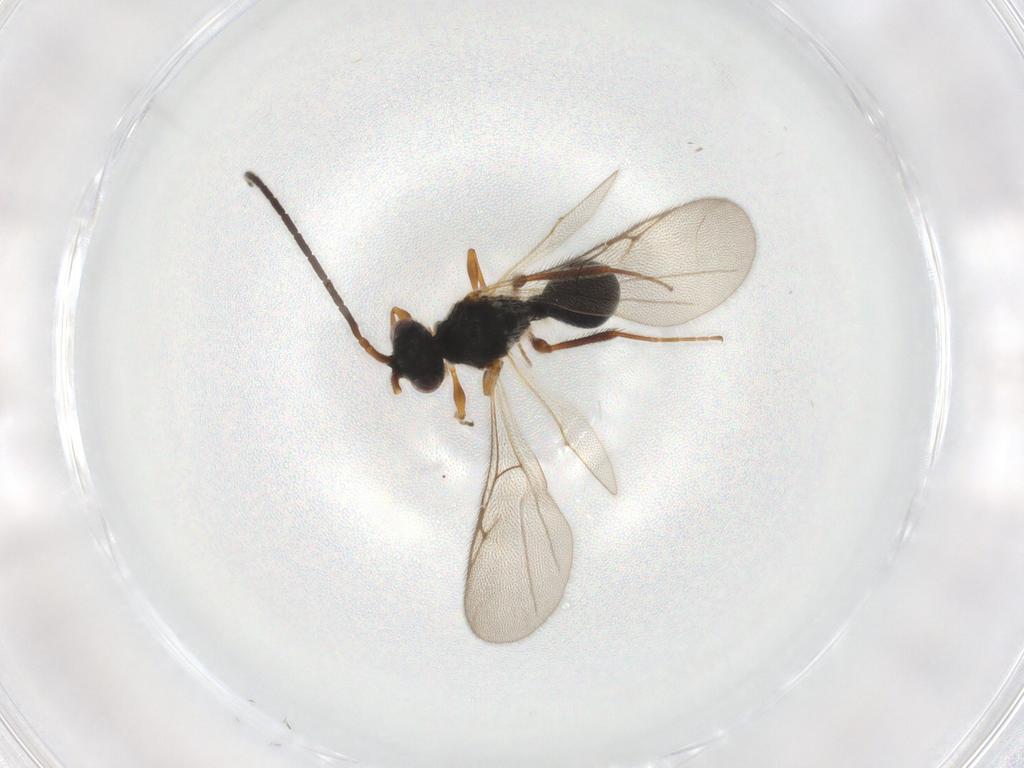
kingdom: Animalia
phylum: Arthropoda
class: Insecta
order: Hymenoptera
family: Diapriidae
